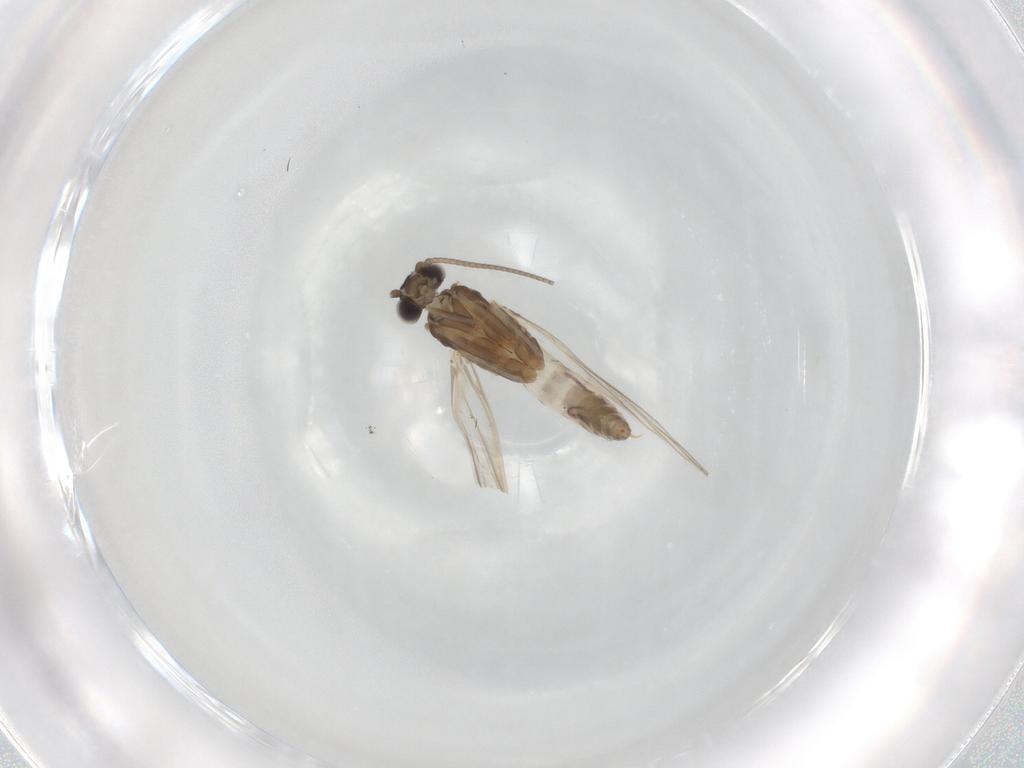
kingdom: Animalia
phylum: Arthropoda
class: Insecta
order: Trichoptera
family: Hydroptilidae
